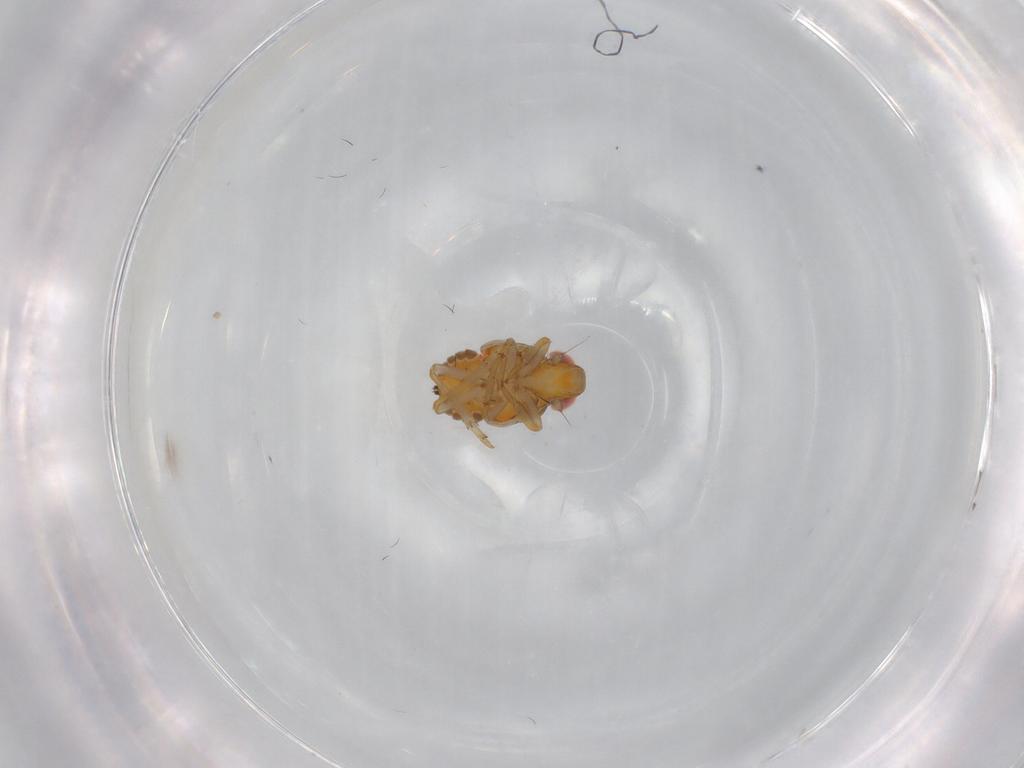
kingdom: Animalia
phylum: Arthropoda
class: Insecta
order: Hemiptera
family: Issidae
